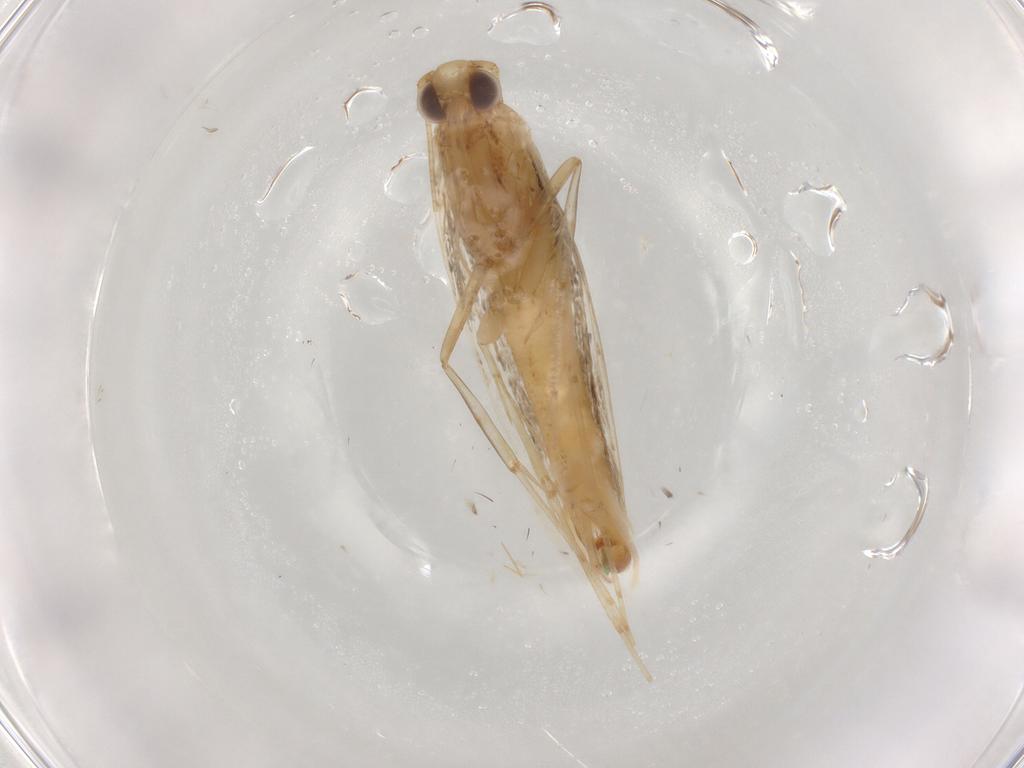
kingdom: Animalia
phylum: Arthropoda
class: Insecta
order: Lepidoptera
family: Gracillariidae
